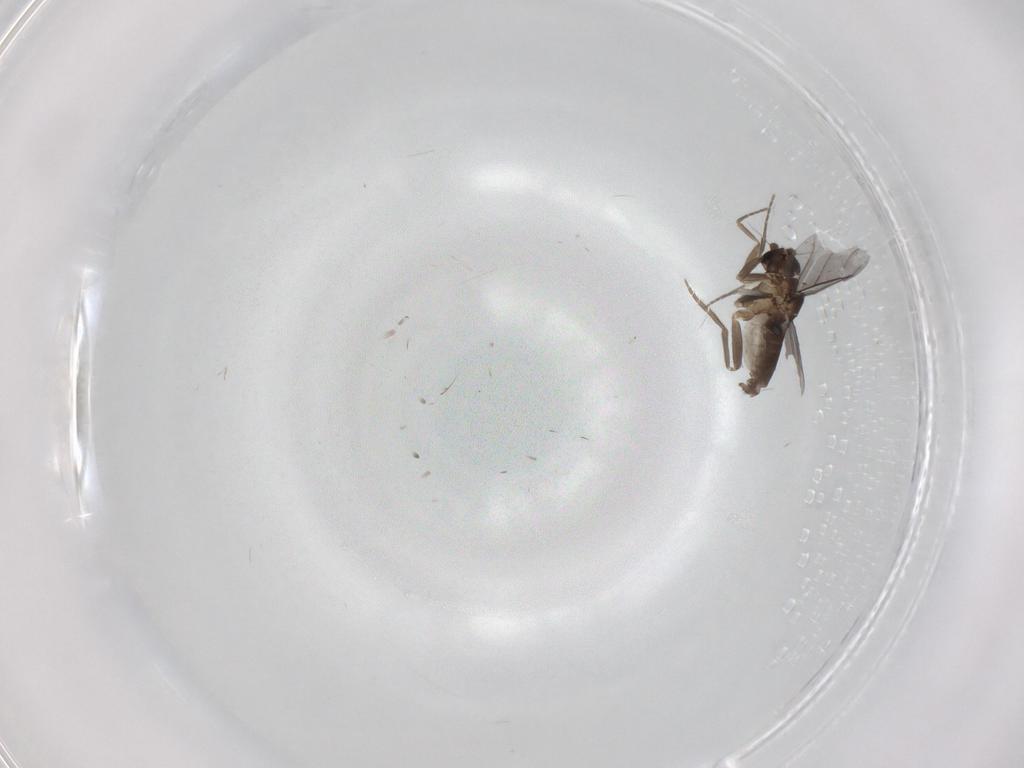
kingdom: Animalia
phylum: Arthropoda
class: Insecta
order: Diptera
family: Phoridae
